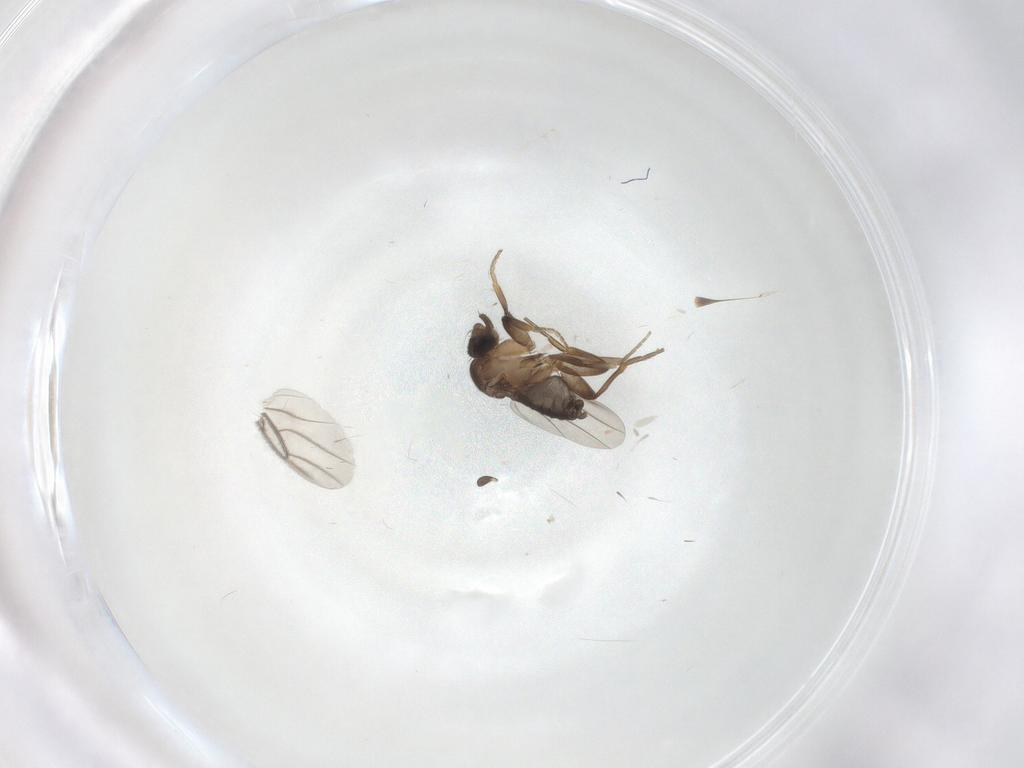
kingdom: Animalia
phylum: Arthropoda
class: Insecta
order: Diptera
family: Phoridae
